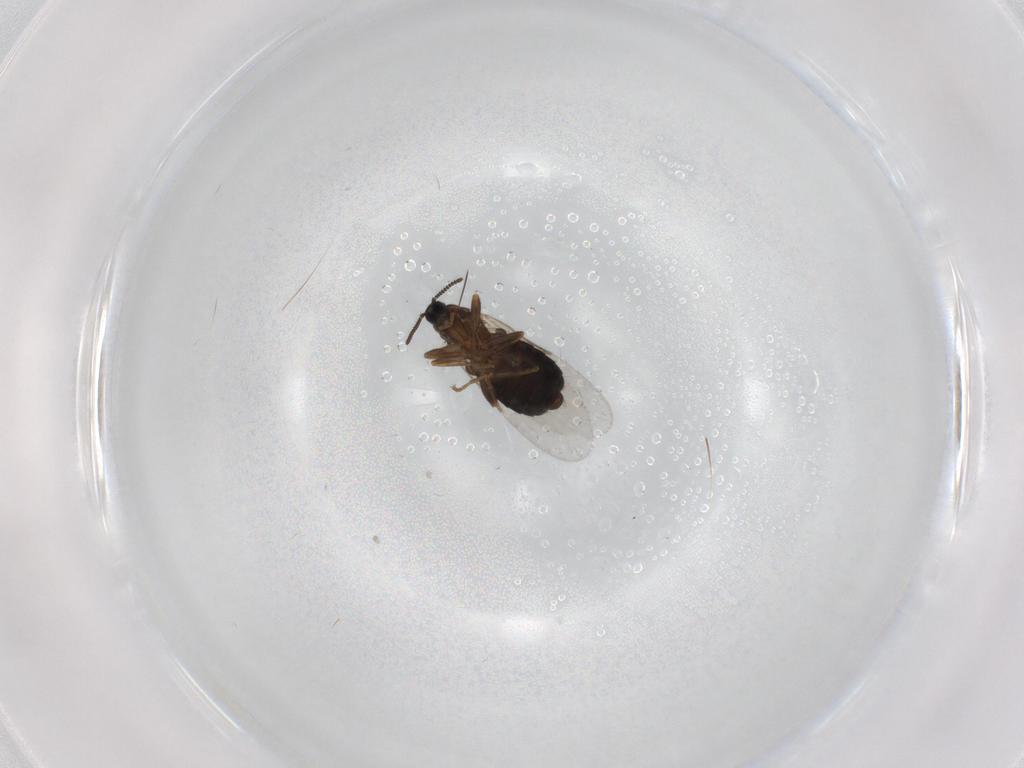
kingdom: Animalia
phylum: Arthropoda
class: Insecta
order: Diptera
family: Scatopsidae
